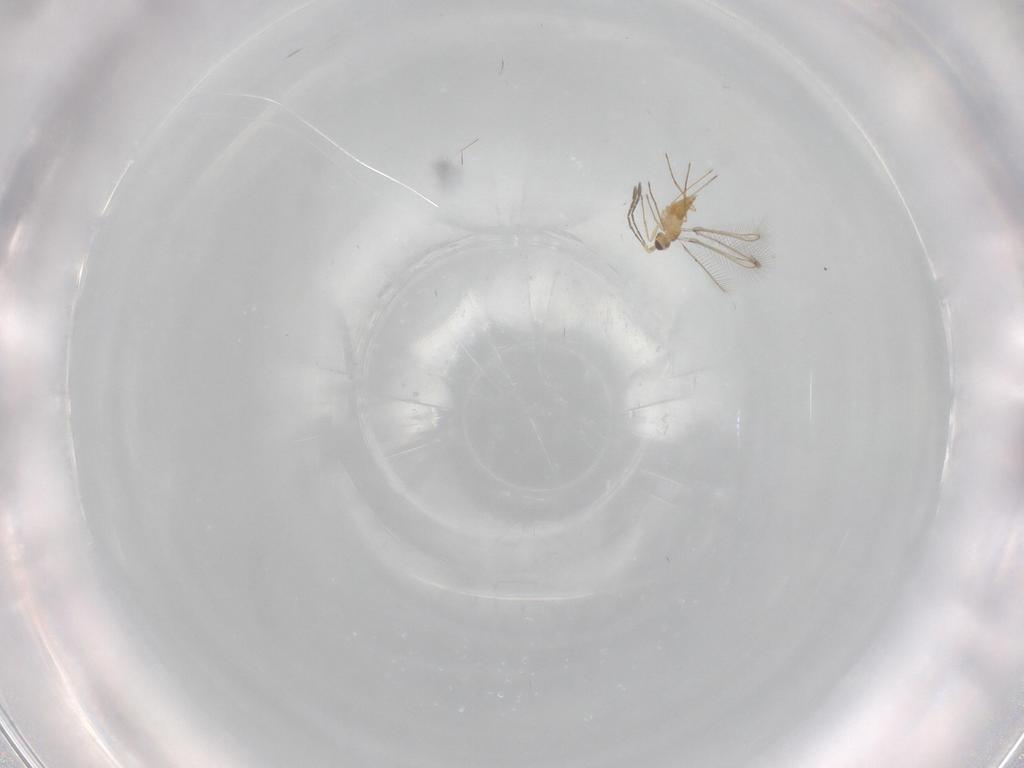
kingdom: Animalia
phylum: Arthropoda
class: Insecta
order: Hymenoptera
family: Mymaridae
